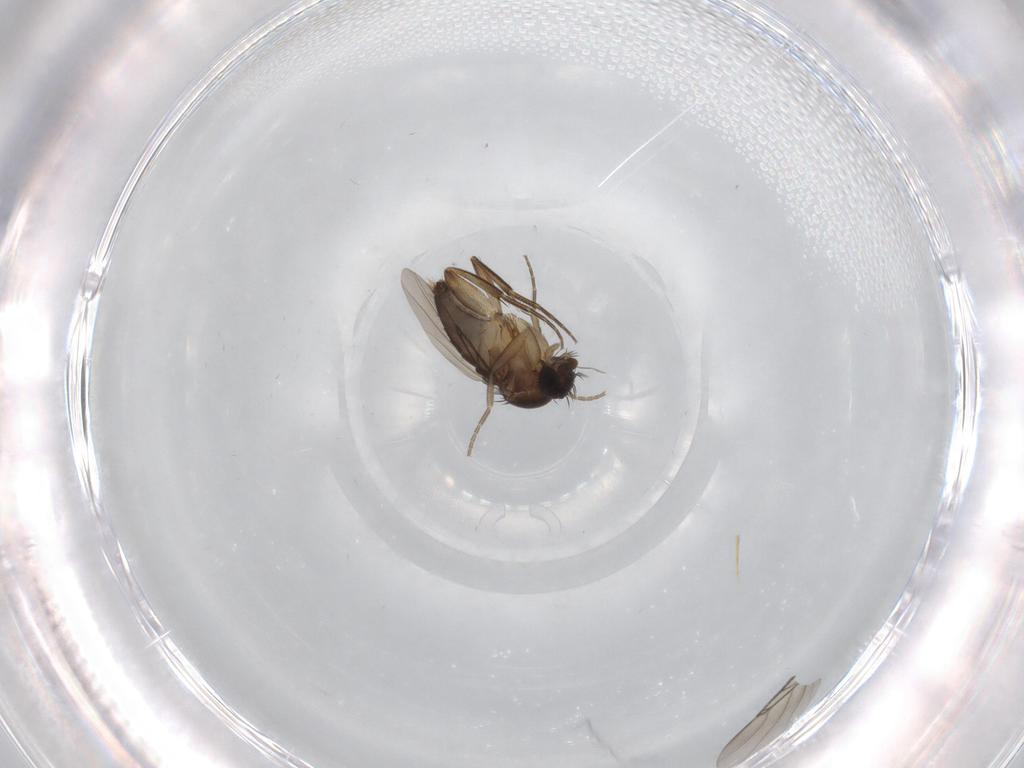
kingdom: Animalia
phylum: Arthropoda
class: Insecta
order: Diptera
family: Phoridae
